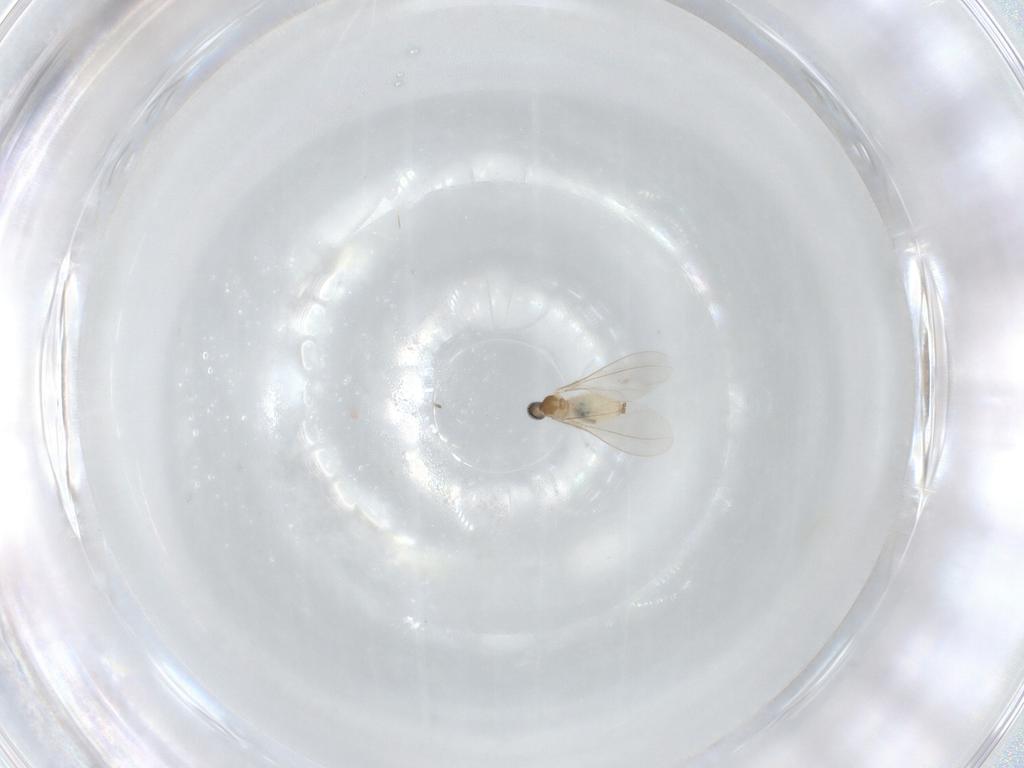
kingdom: Animalia
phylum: Arthropoda
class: Insecta
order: Diptera
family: Cecidomyiidae
